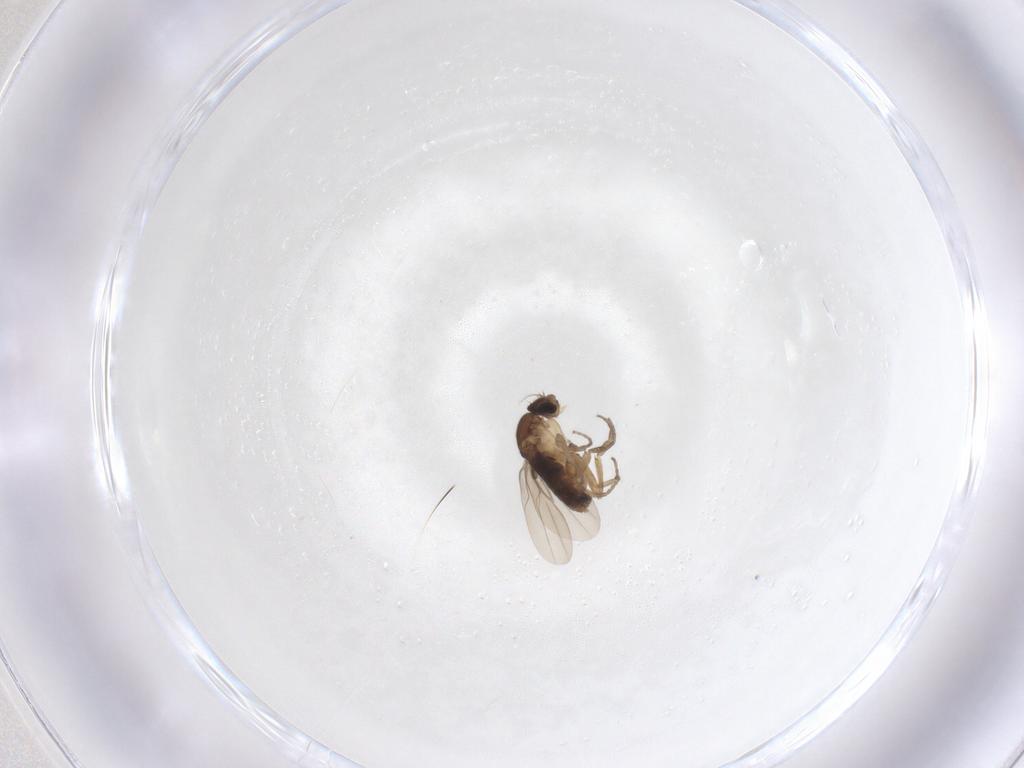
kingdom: Animalia
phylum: Arthropoda
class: Insecta
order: Diptera
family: Phoridae
